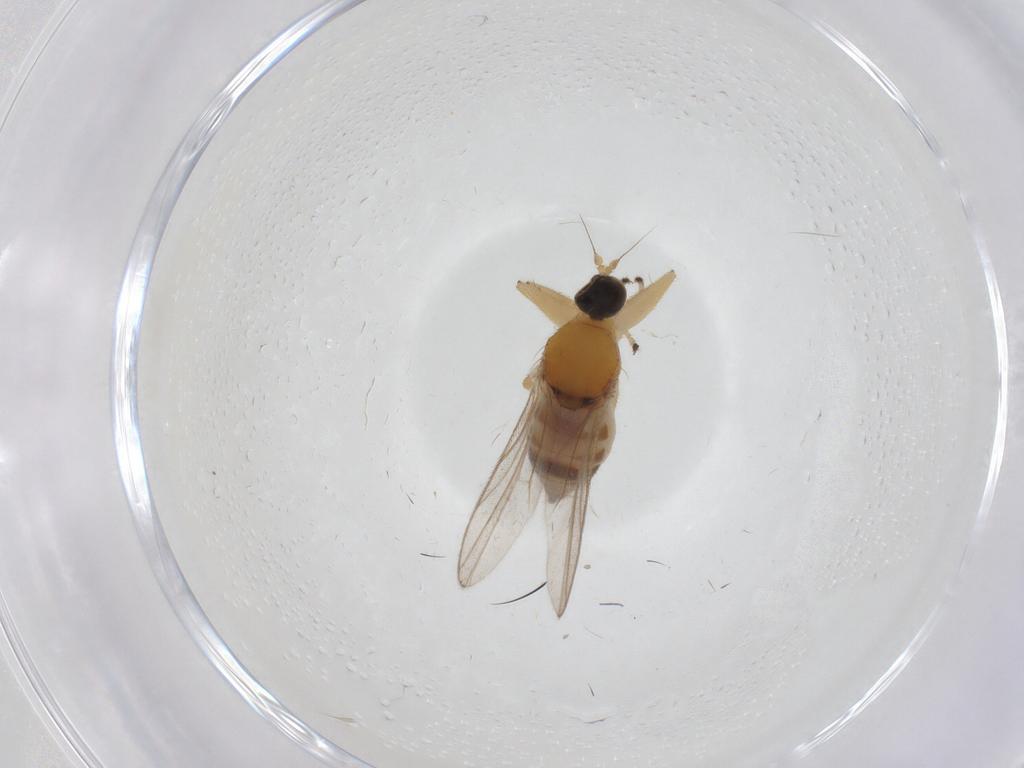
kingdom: Animalia
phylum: Arthropoda
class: Insecta
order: Diptera
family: Hybotidae
